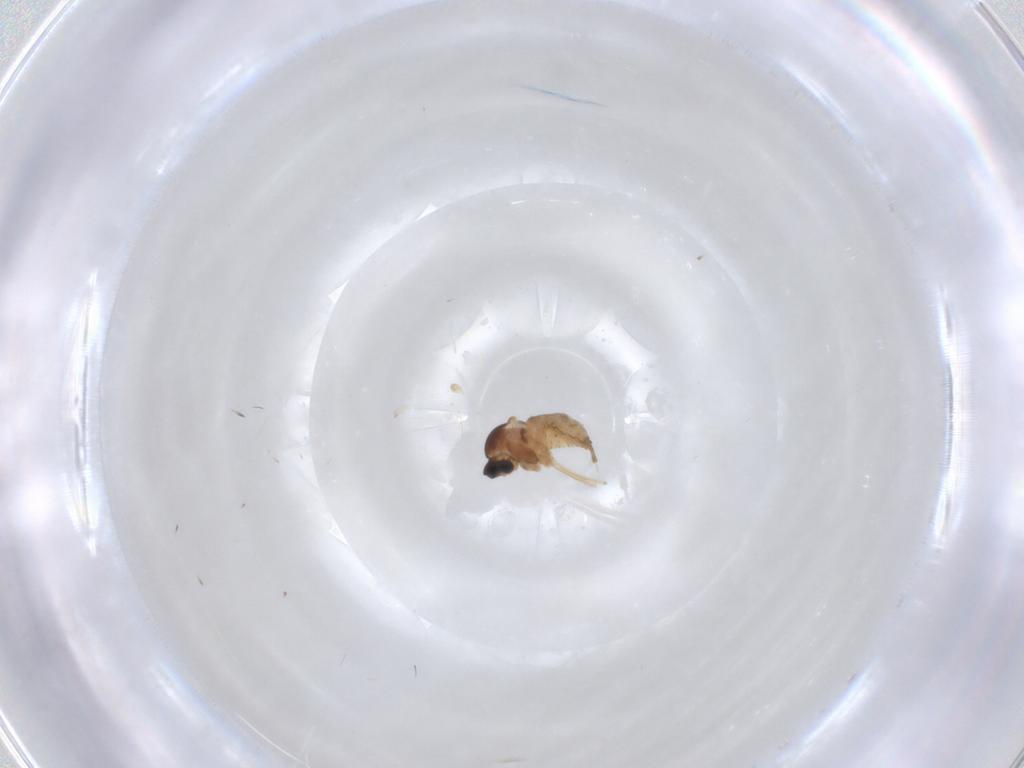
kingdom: Animalia
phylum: Arthropoda
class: Insecta
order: Diptera
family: Cecidomyiidae
